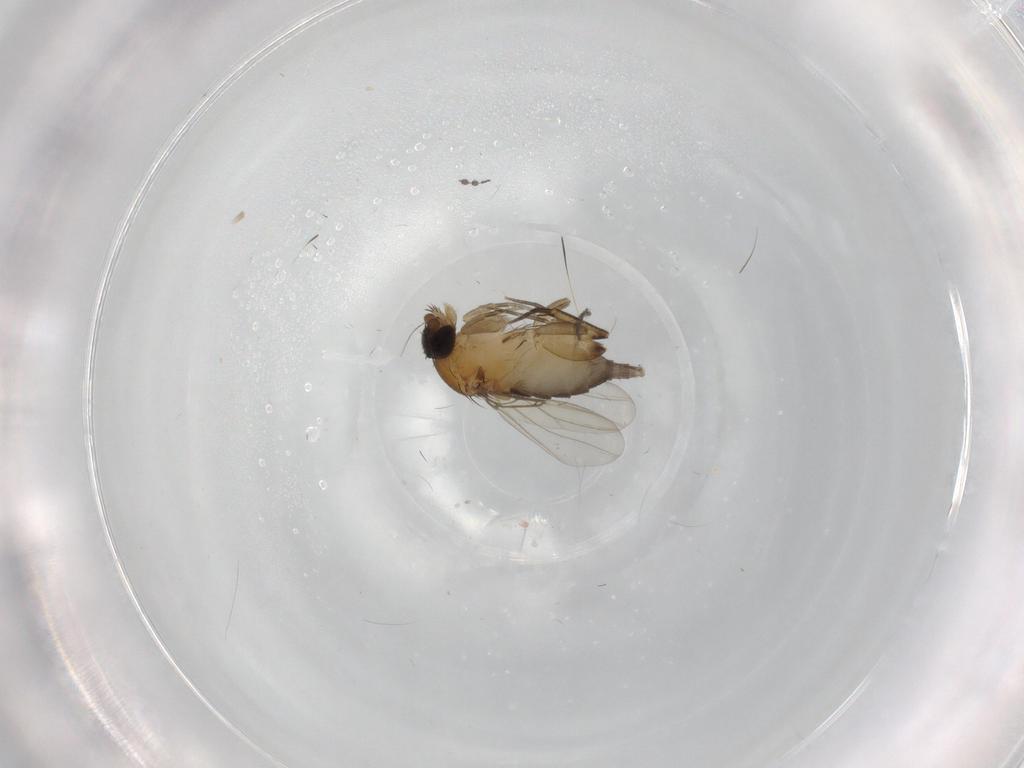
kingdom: Animalia
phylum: Arthropoda
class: Insecta
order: Diptera
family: Phoridae
